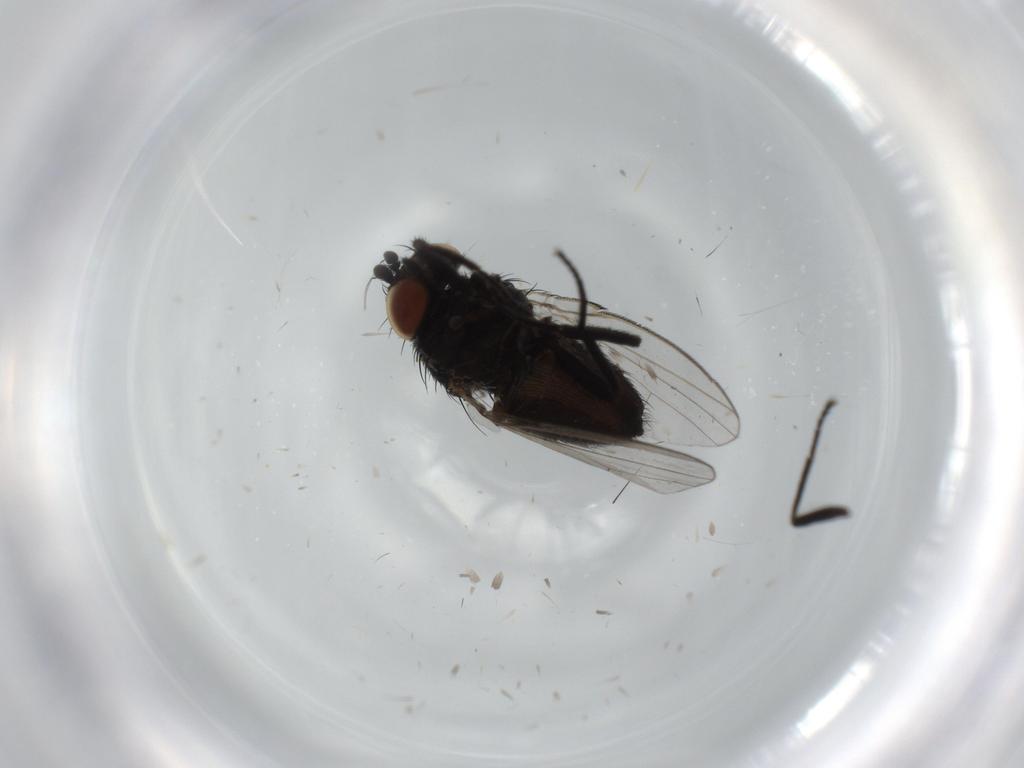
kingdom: Animalia
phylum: Arthropoda
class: Insecta
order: Diptera
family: Milichiidae
